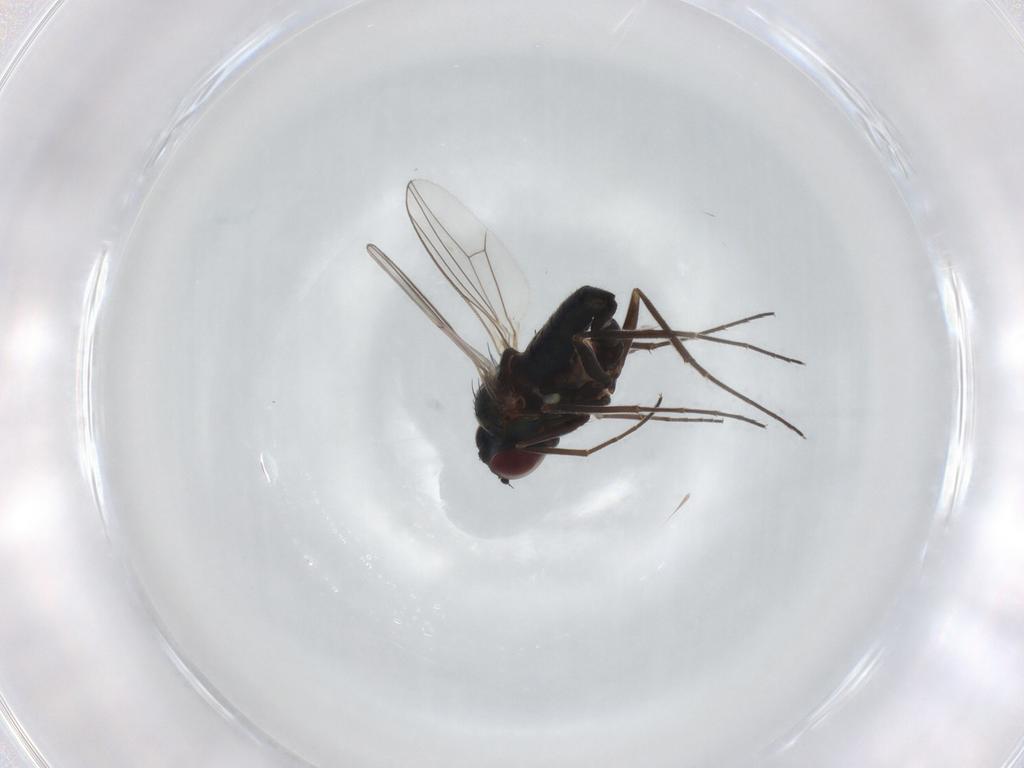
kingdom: Animalia
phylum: Arthropoda
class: Insecta
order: Diptera
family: Dolichopodidae
